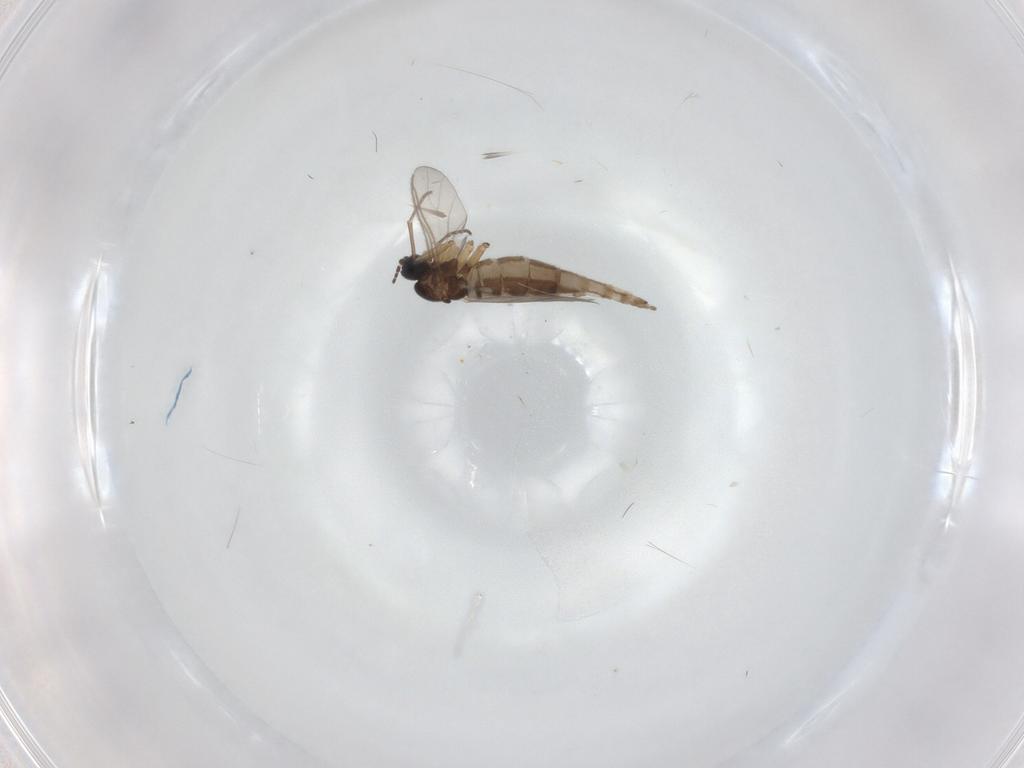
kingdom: Animalia
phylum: Arthropoda
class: Insecta
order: Diptera
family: Sciaridae
